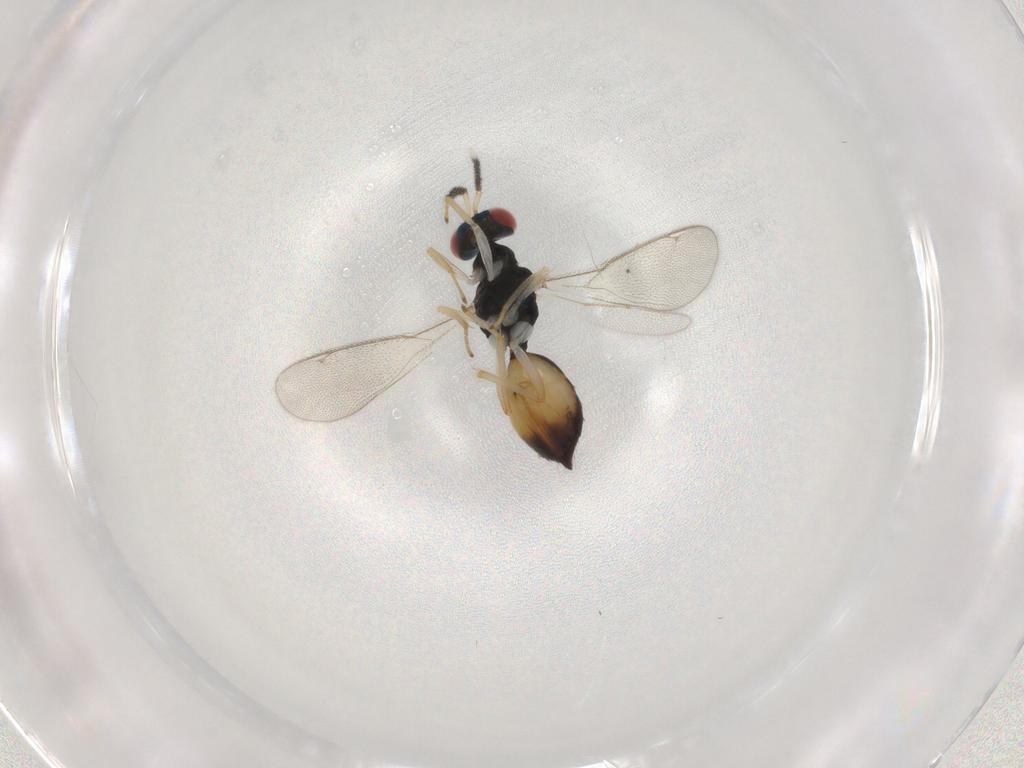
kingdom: Animalia
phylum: Arthropoda
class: Insecta
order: Hymenoptera
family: Eulophidae
